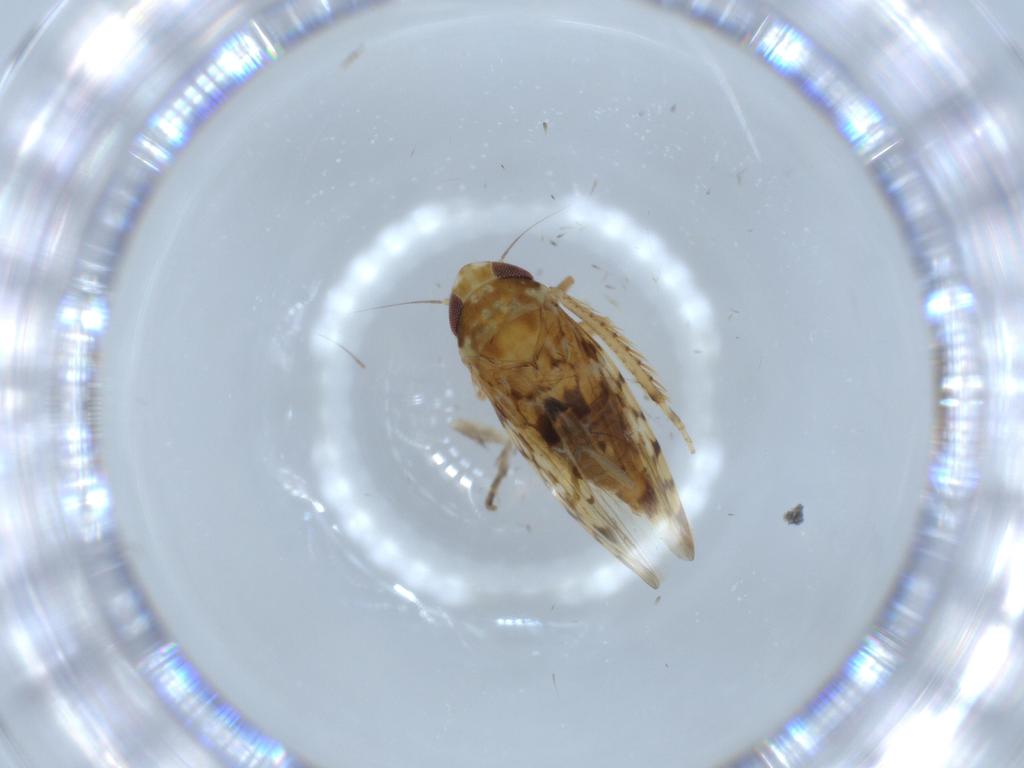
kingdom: Animalia
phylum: Arthropoda
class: Insecta
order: Hemiptera
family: Cicadellidae
